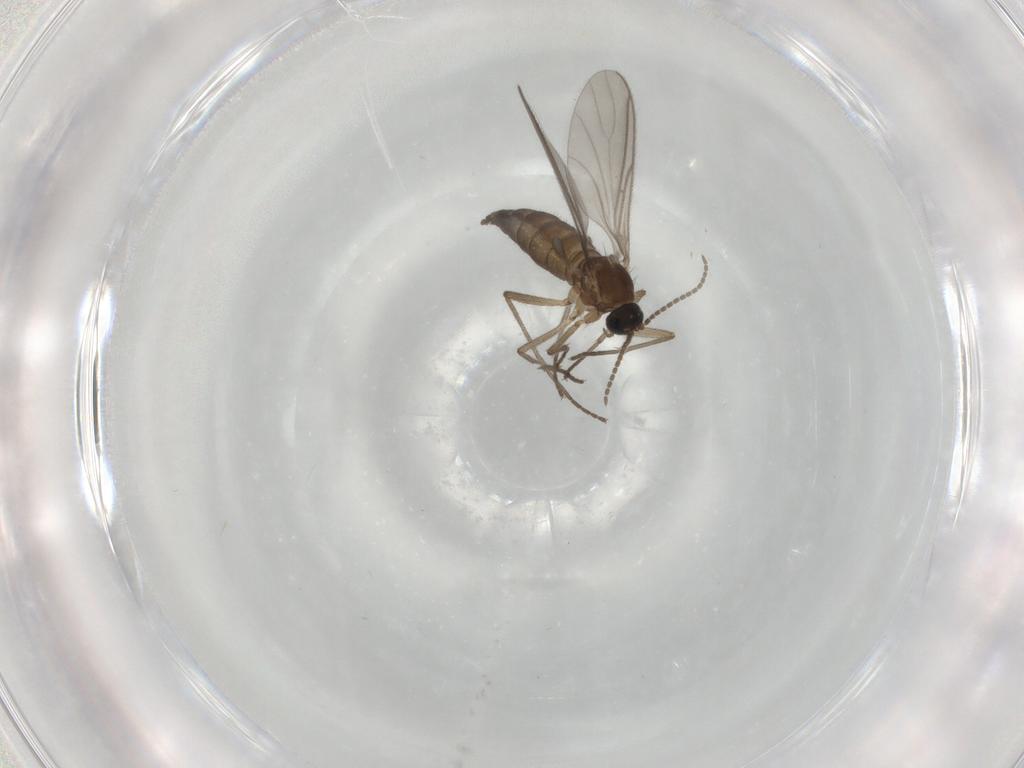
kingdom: Animalia
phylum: Arthropoda
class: Insecta
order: Diptera
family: Sciaridae
